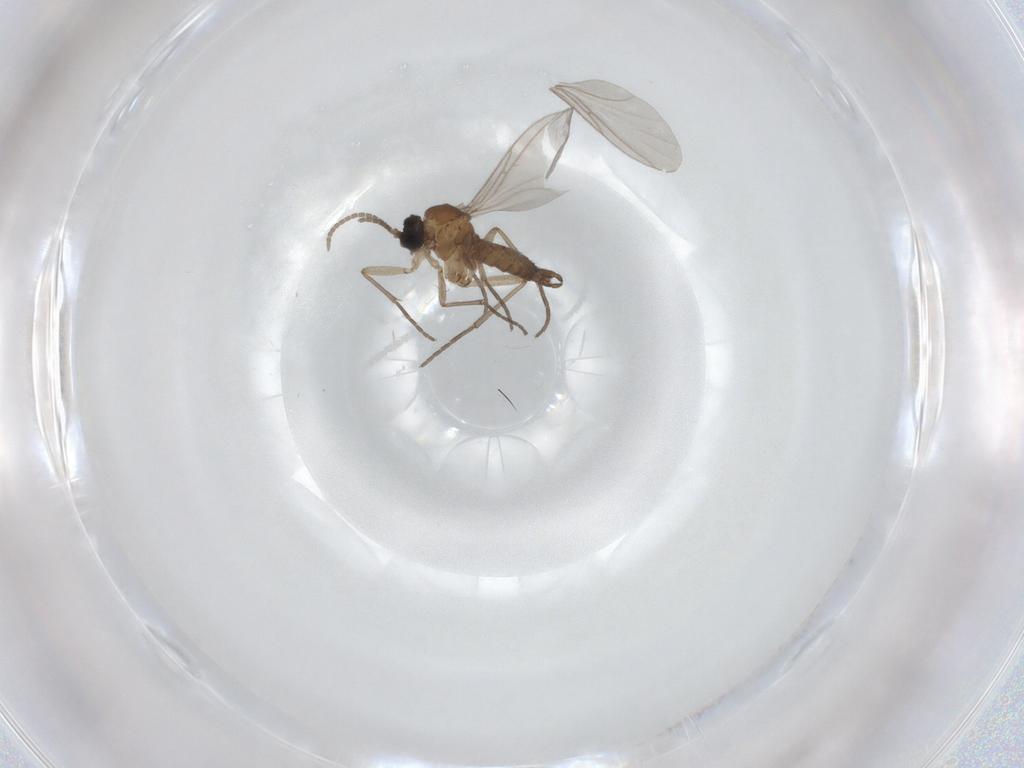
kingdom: Animalia
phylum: Arthropoda
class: Insecta
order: Diptera
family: Sciaridae
